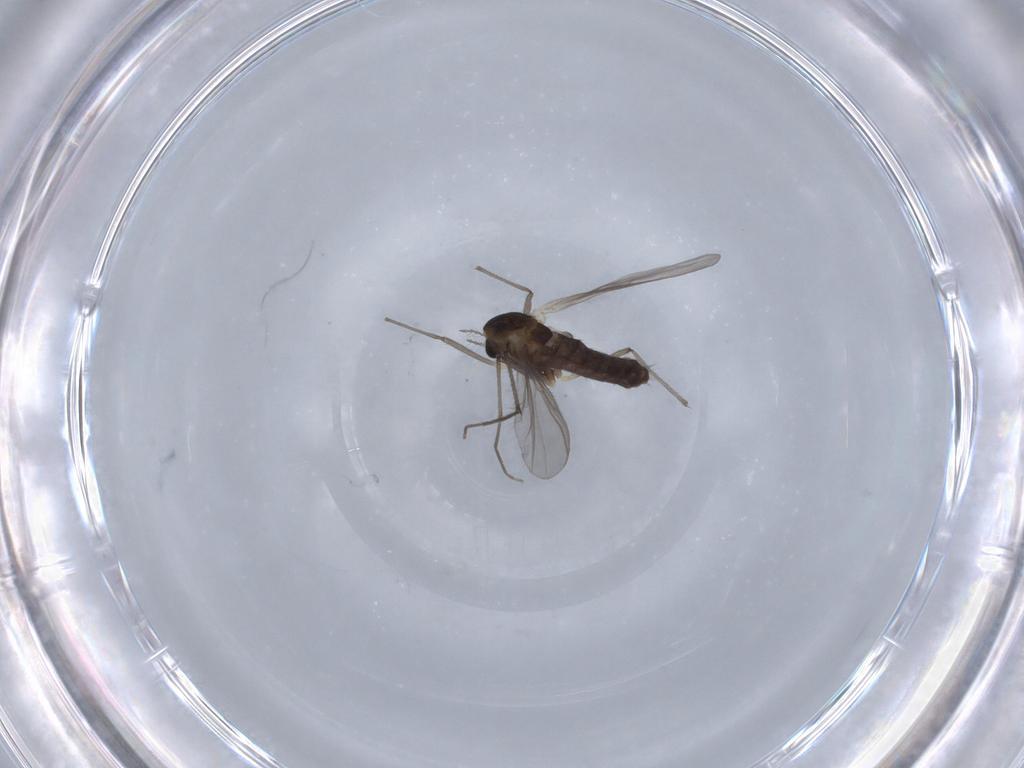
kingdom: Animalia
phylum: Arthropoda
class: Insecta
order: Diptera
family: Chironomidae
